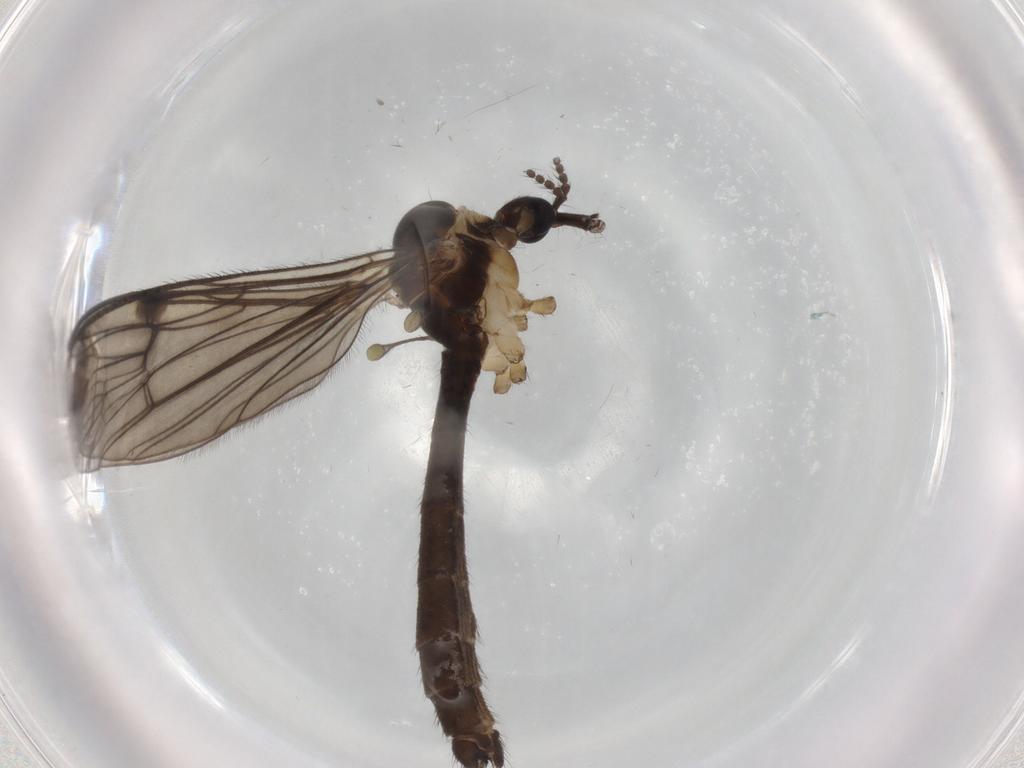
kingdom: Animalia
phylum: Arthropoda
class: Insecta
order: Diptera
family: Limoniidae
